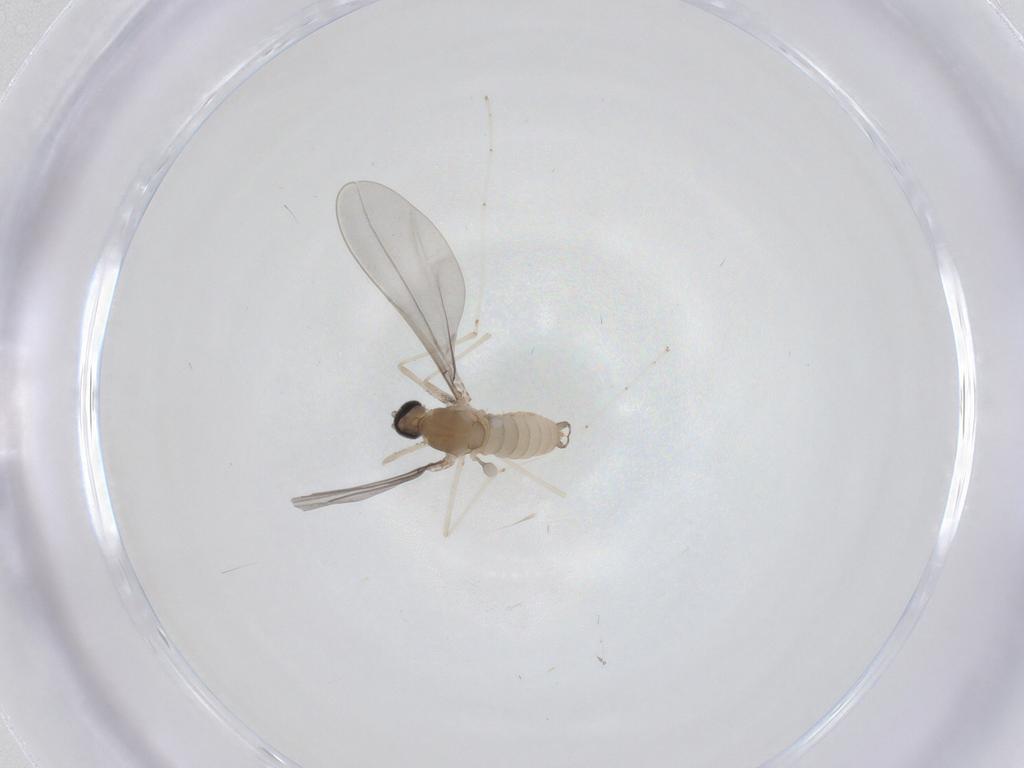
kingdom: Animalia
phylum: Arthropoda
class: Insecta
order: Diptera
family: Cecidomyiidae
